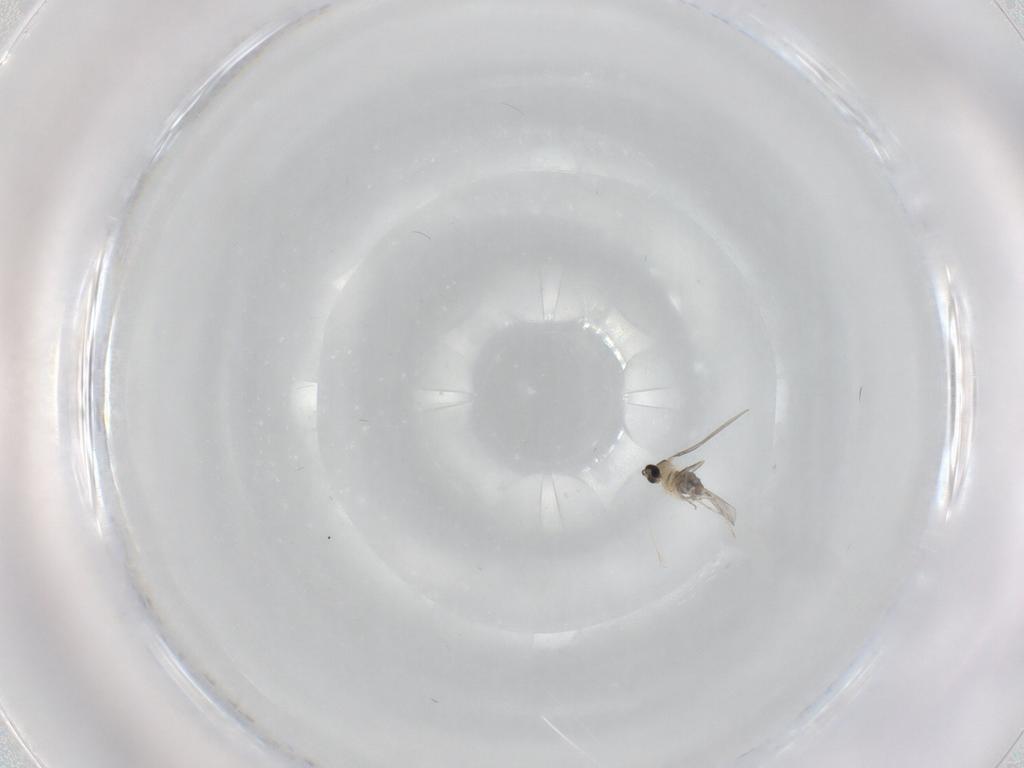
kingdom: Animalia
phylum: Arthropoda
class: Insecta
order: Diptera
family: Cecidomyiidae
